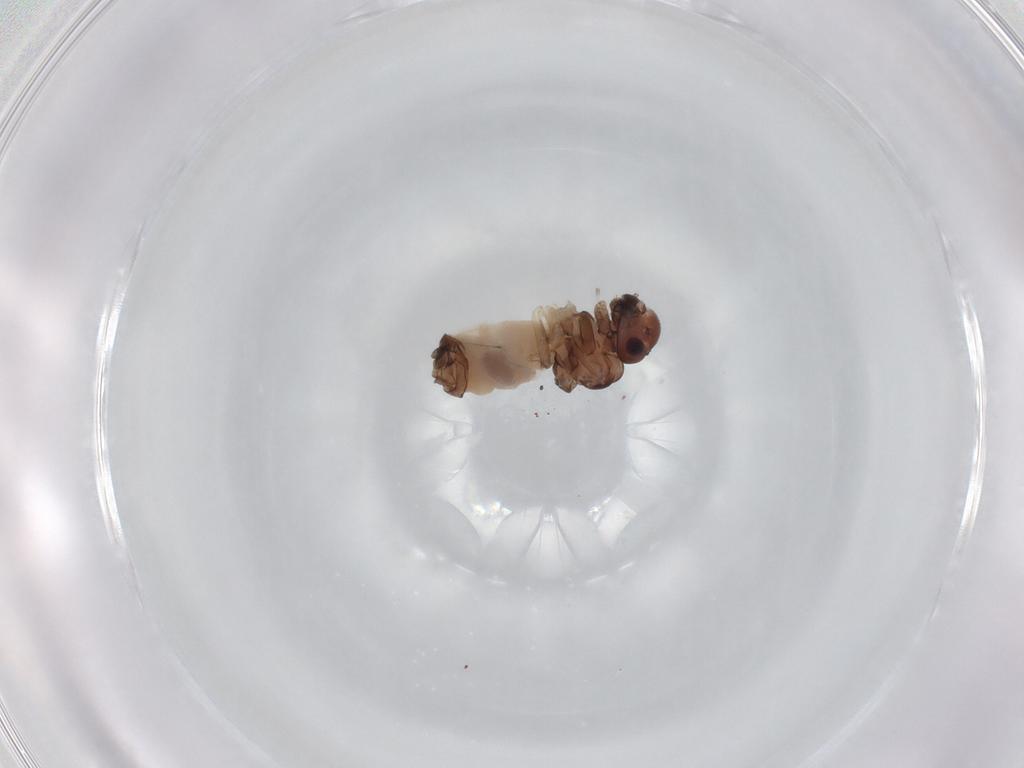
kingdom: Animalia
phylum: Arthropoda
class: Insecta
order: Psocodea
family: Peripsocidae
